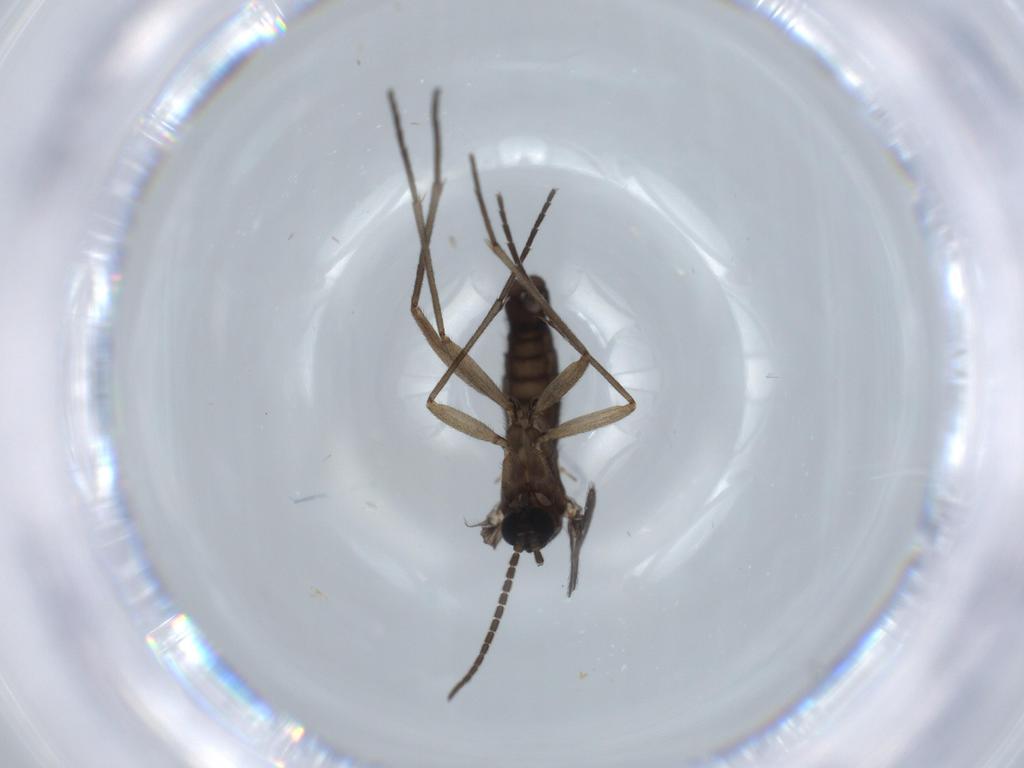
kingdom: Animalia
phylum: Arthropoda
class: Insecta
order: Diptera
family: Sciaridae
